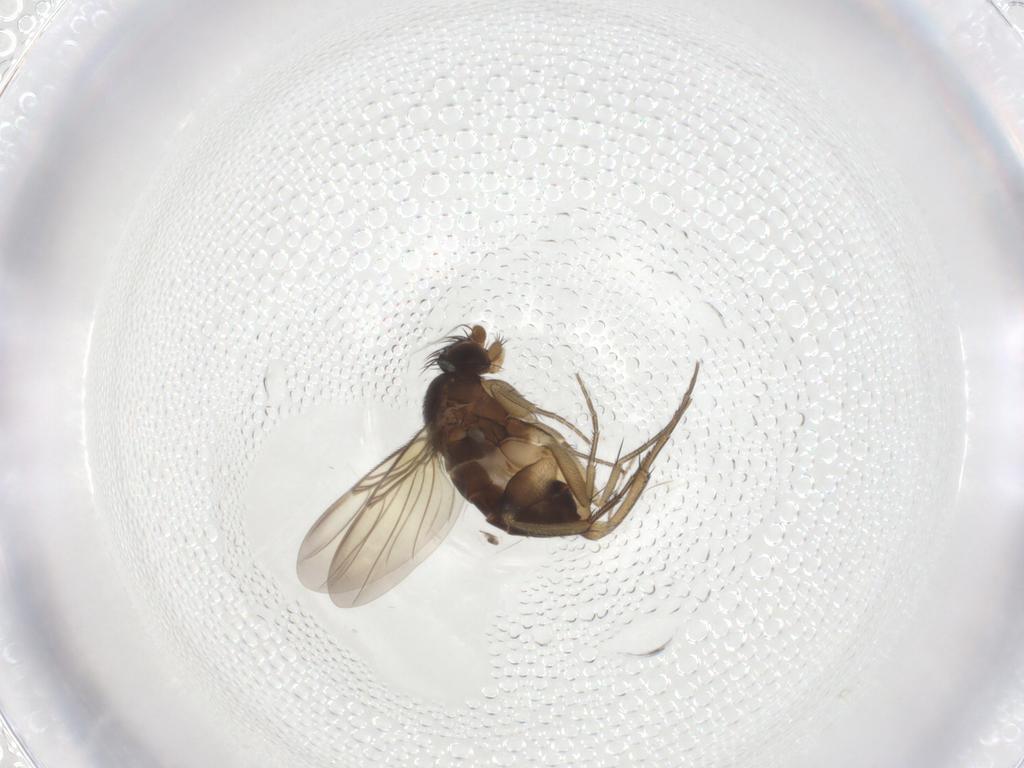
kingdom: Animalia
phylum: Arthropoda
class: Insecta
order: Diptera
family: Phoridae
